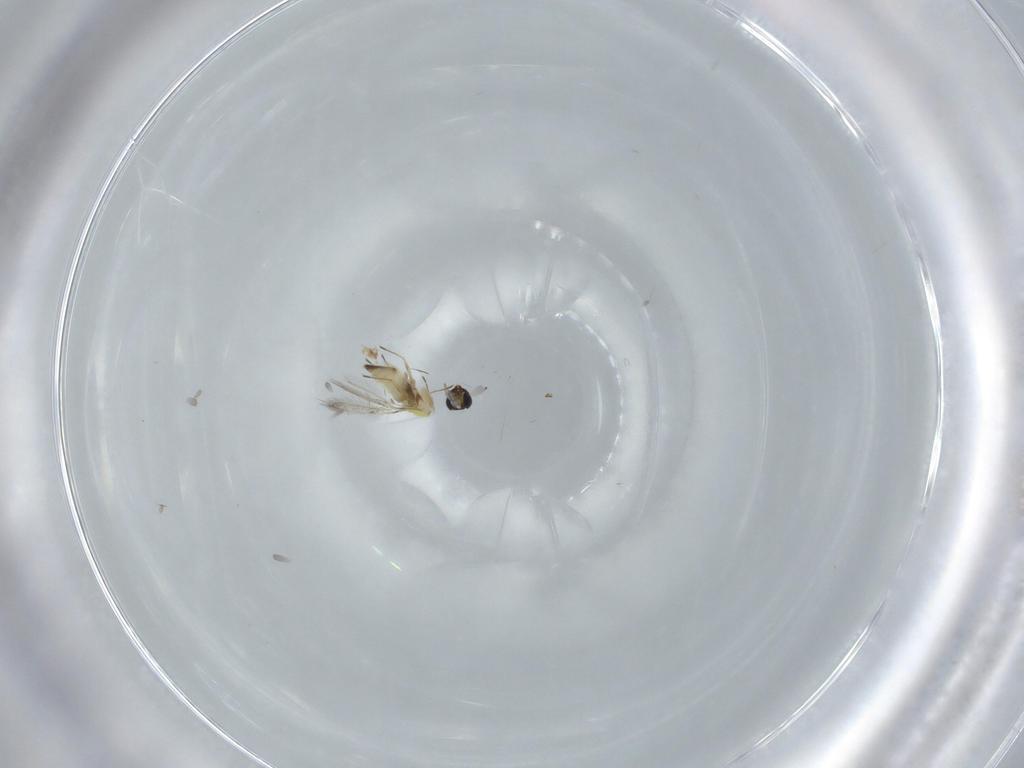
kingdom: Animalia
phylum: Arthropoda
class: Insecta
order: Hymenoptera
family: Trichogrammatidae
